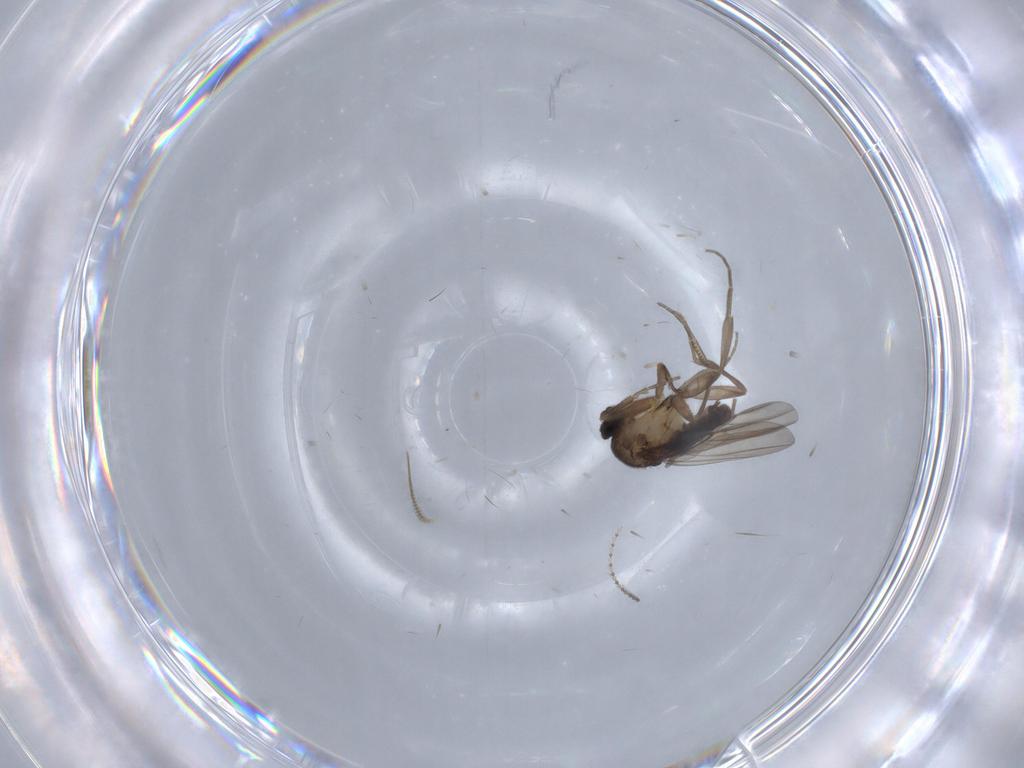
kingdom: Animalia
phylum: Arthropoda
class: Insecta
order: Diptera
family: Phoridae
